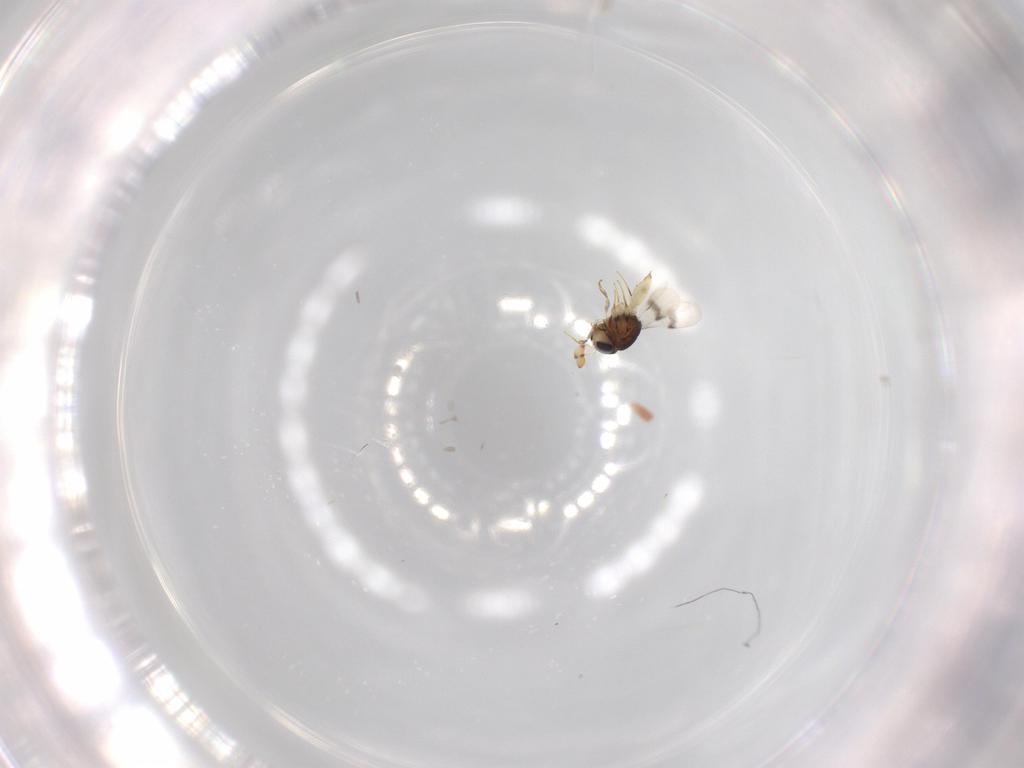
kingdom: Animalia
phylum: Arthropoda
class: Insecta
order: Hymenoptera
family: Scelionidae
